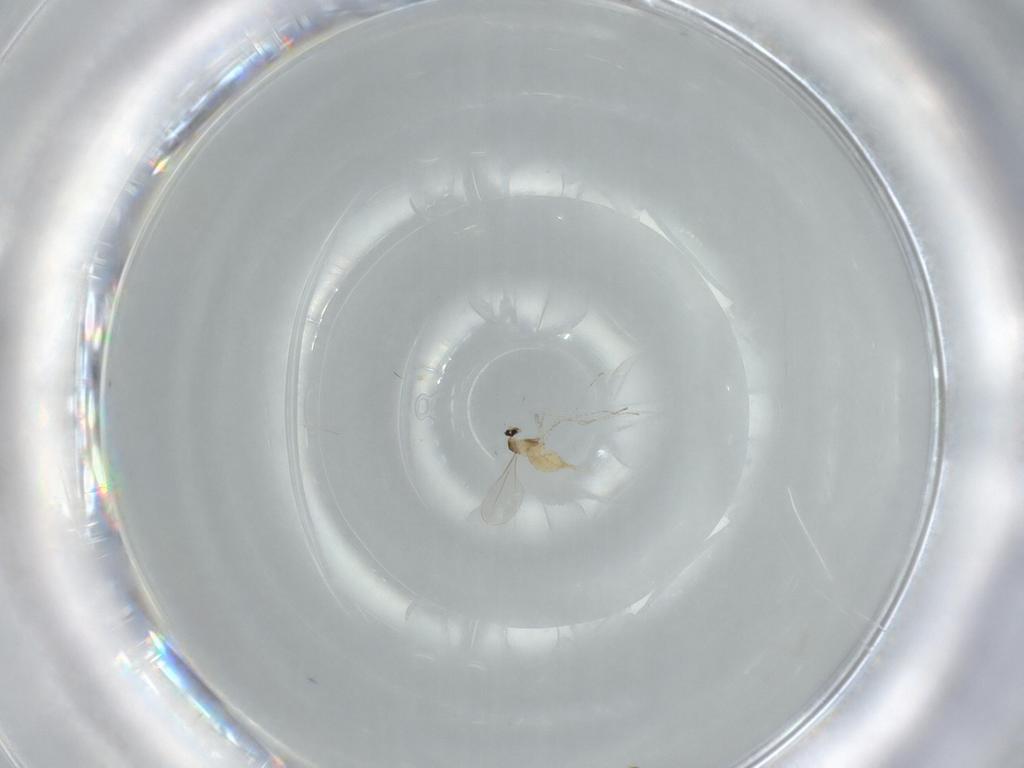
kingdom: Animalia
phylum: Arthropoda
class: Insecta
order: Diptera
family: Cecidomyiidae
